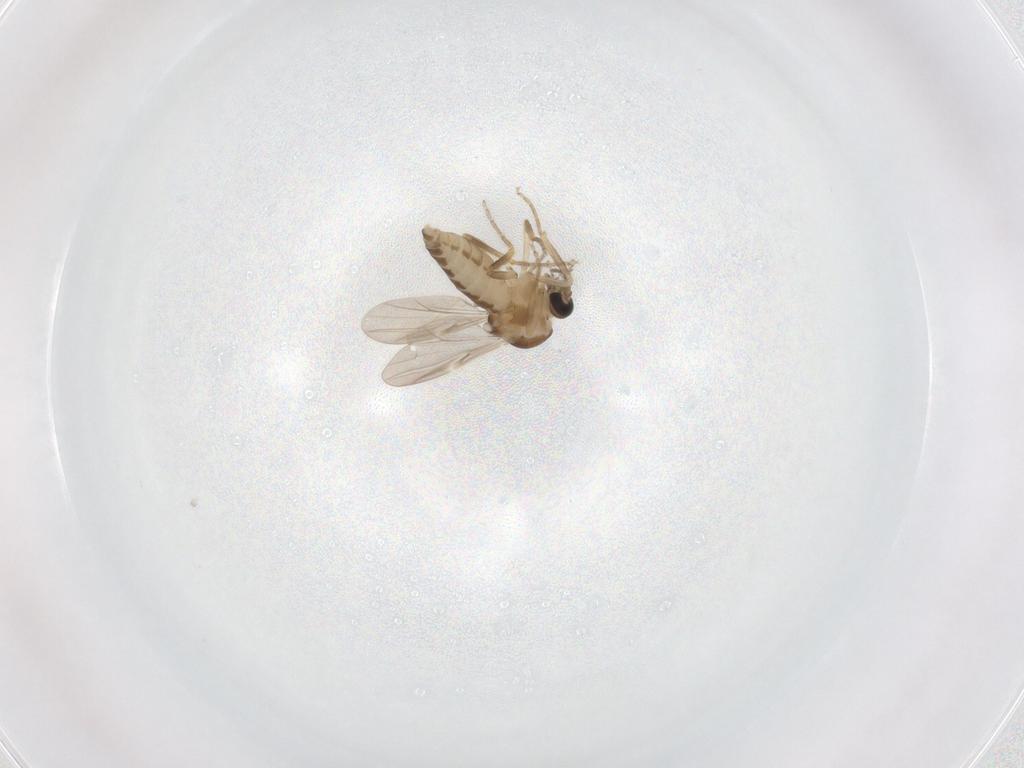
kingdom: Animalia
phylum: Arthropoda
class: Insecta
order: Diptera
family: Ceratopogonidae
